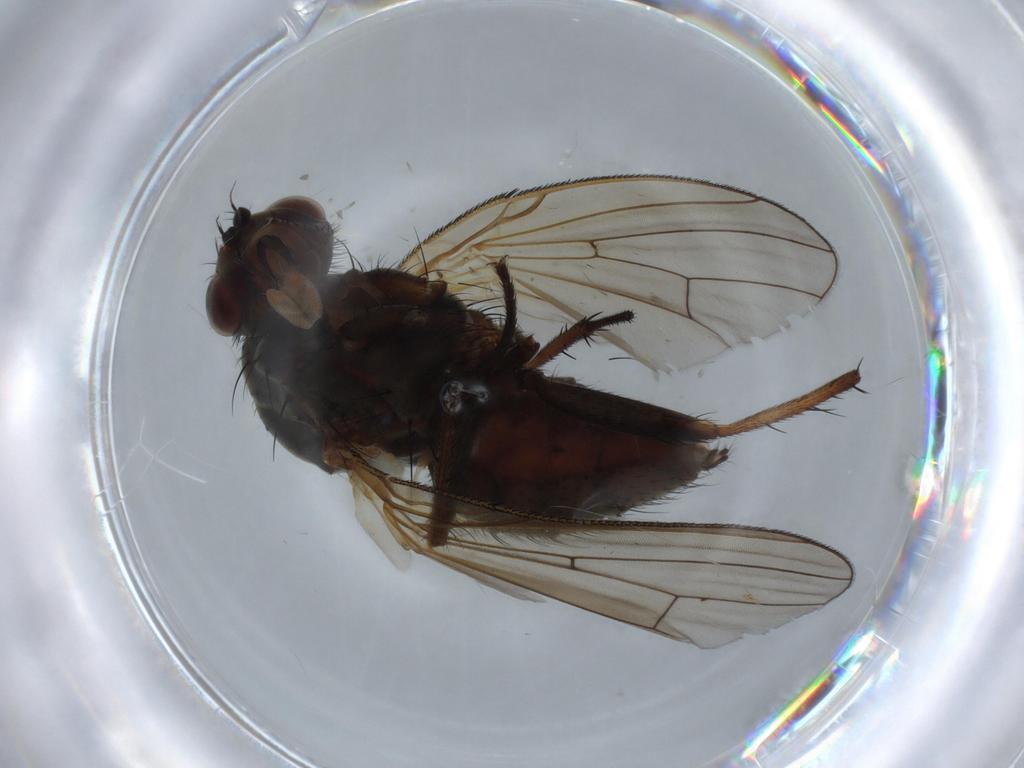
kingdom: Animalia
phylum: Arthropoda
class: Insecta
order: Diptera
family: Anthomyiidae
